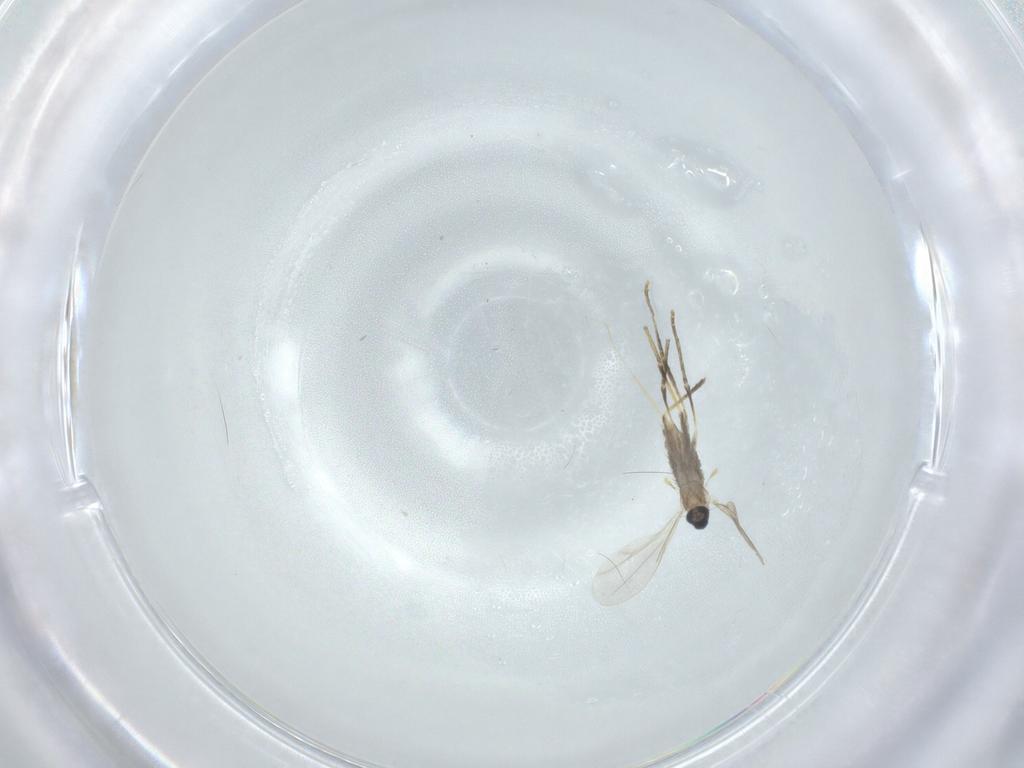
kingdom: Animalia
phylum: Arthropoda
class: Insecta
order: Diptera
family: Cecidomyiidae
